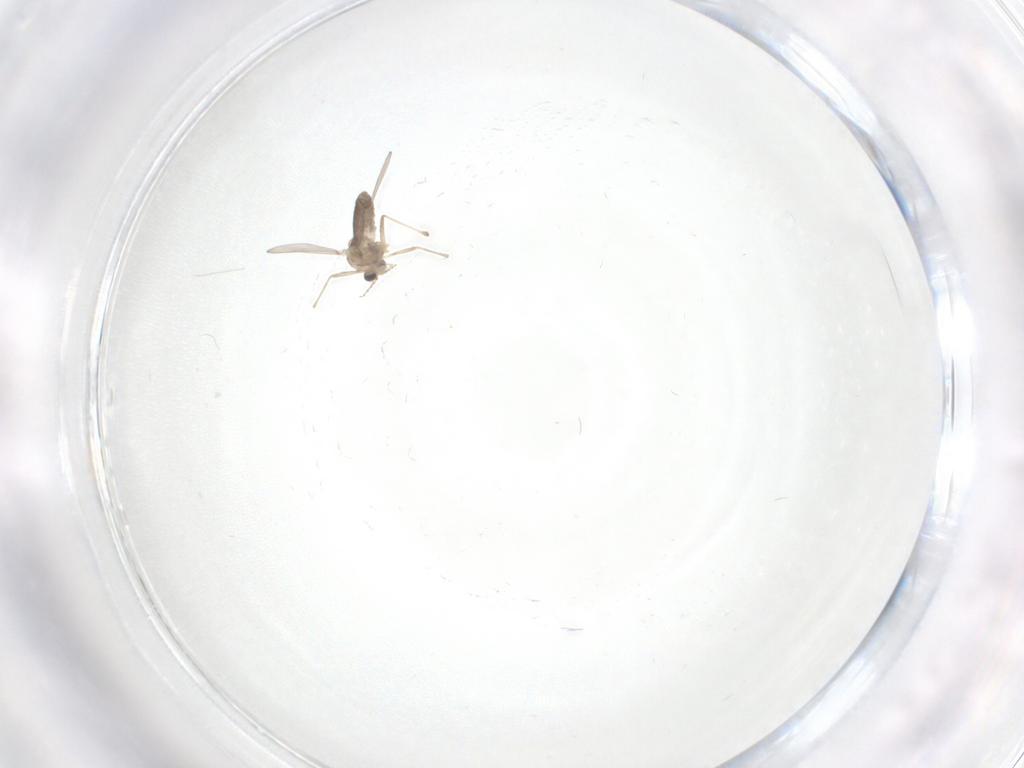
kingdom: Animalia
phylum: Arthropoda
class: Insecta
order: Diptera
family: Chironomidae
